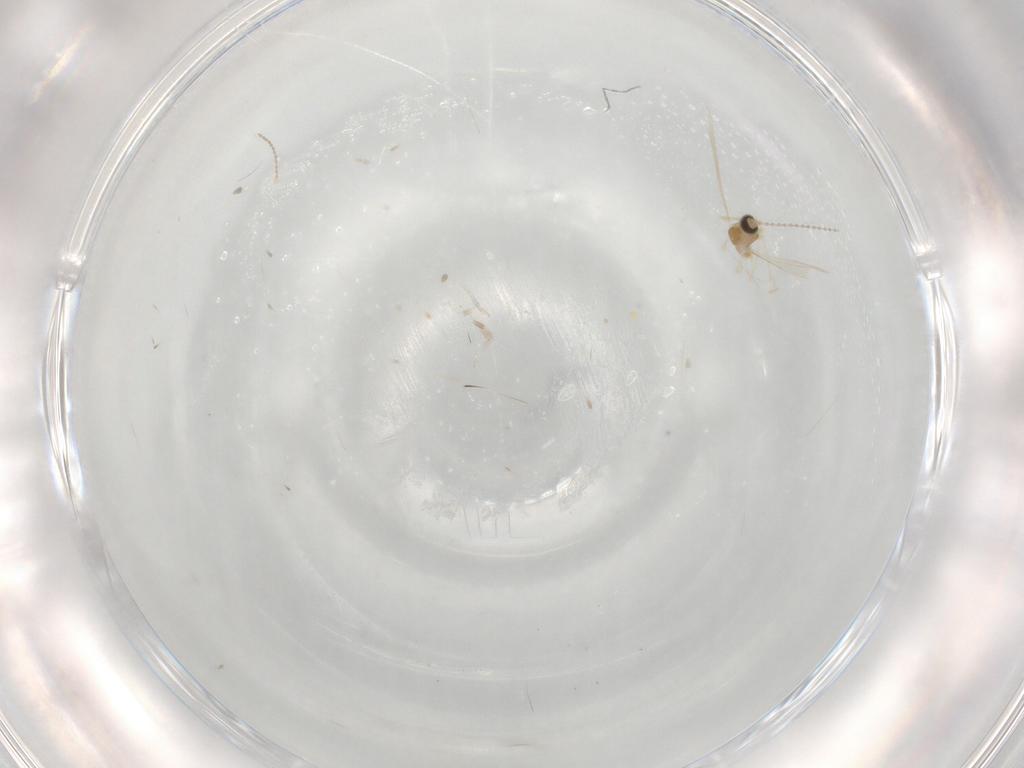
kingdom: Animalia
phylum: Arthropoda
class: Insecta
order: Diptera
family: Cecidomyiidae
